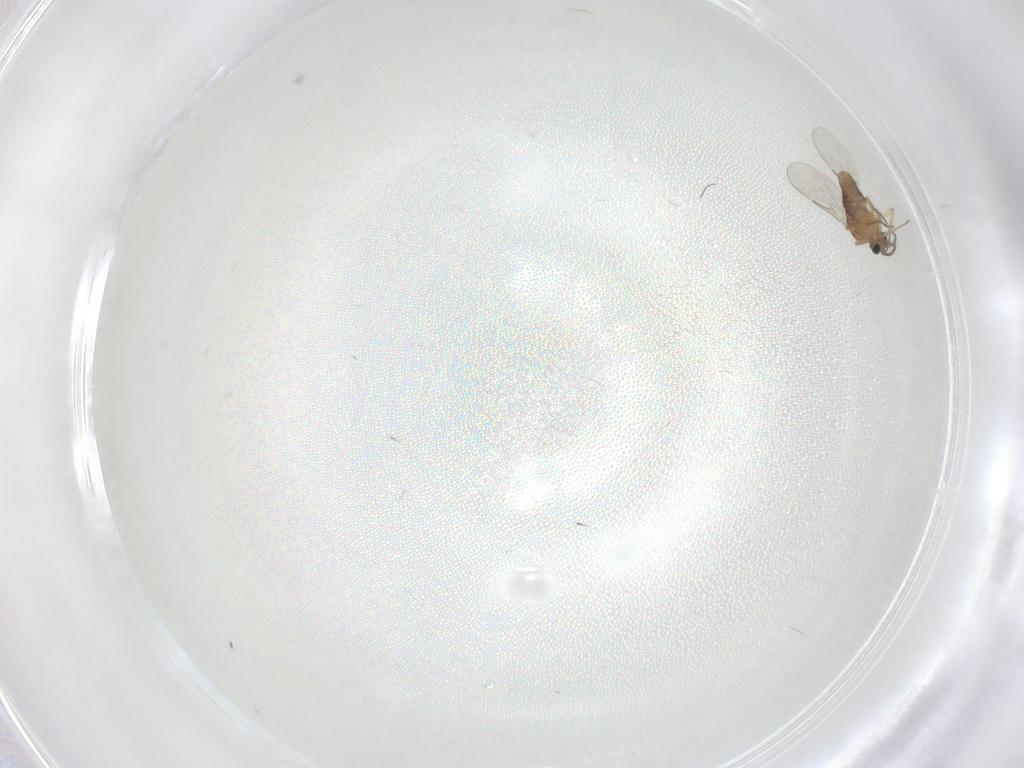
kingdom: Animalia
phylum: Arthropoda
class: Insecta
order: Diptera
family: Ceratopogonidae
